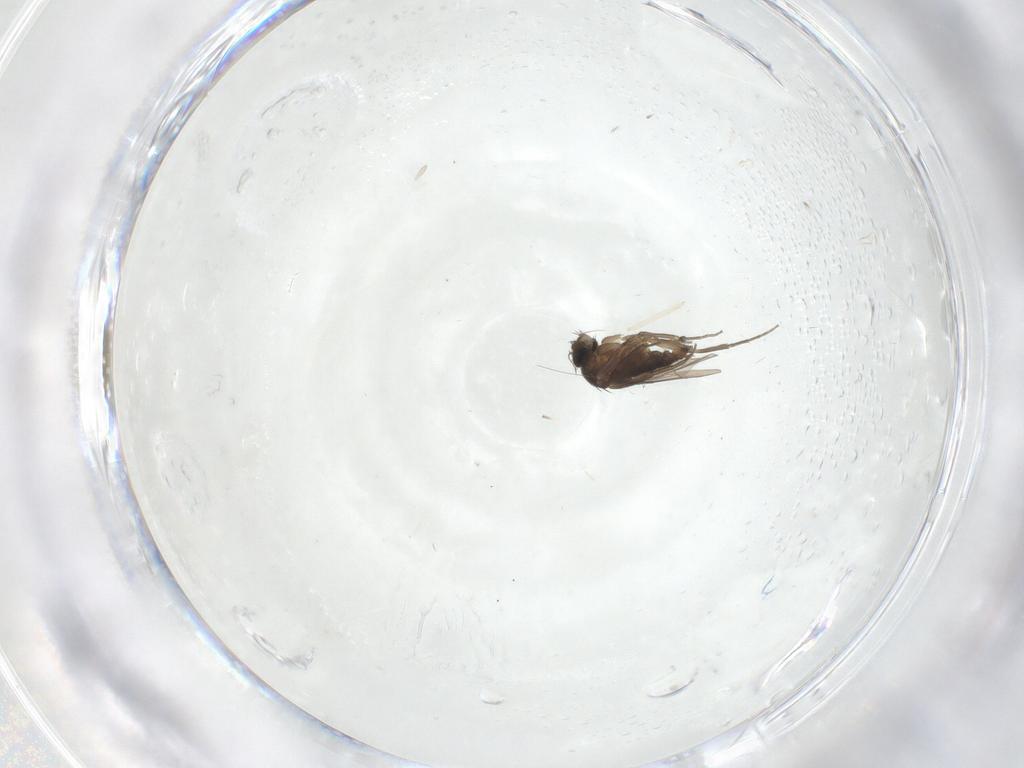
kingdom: Animalia
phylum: Arthropoda
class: Insecta
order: Diptera
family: Phoridae
